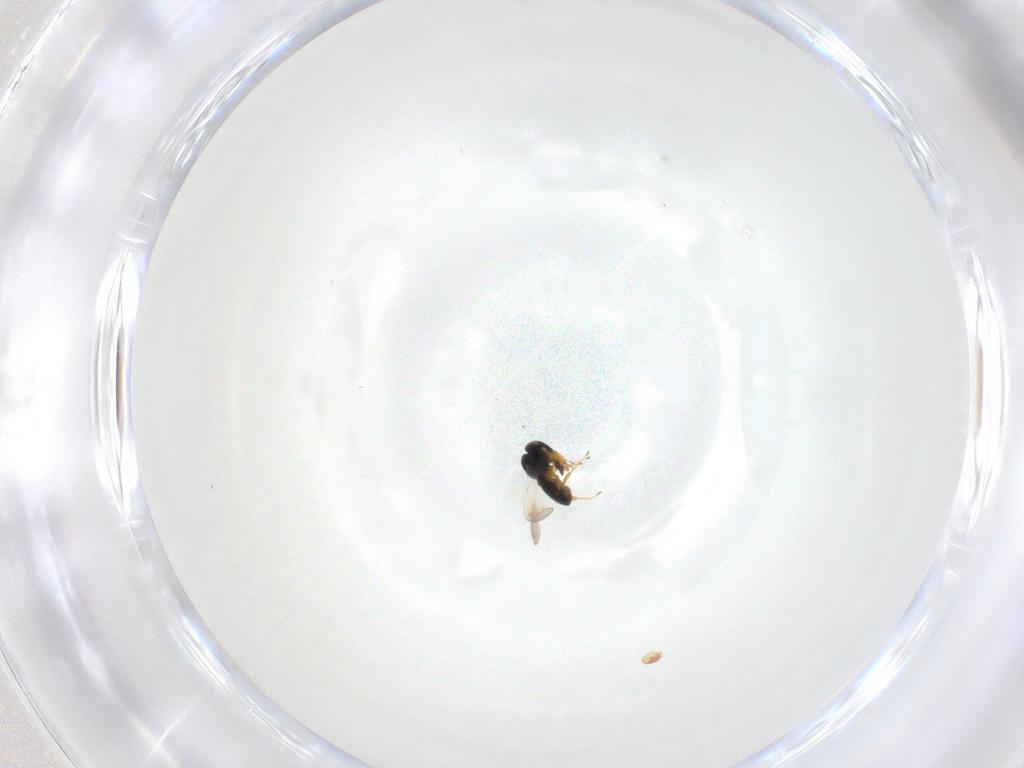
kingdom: Animalia
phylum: Arthropoda
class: Insecta
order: Hymenoptera
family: Platygastridae
